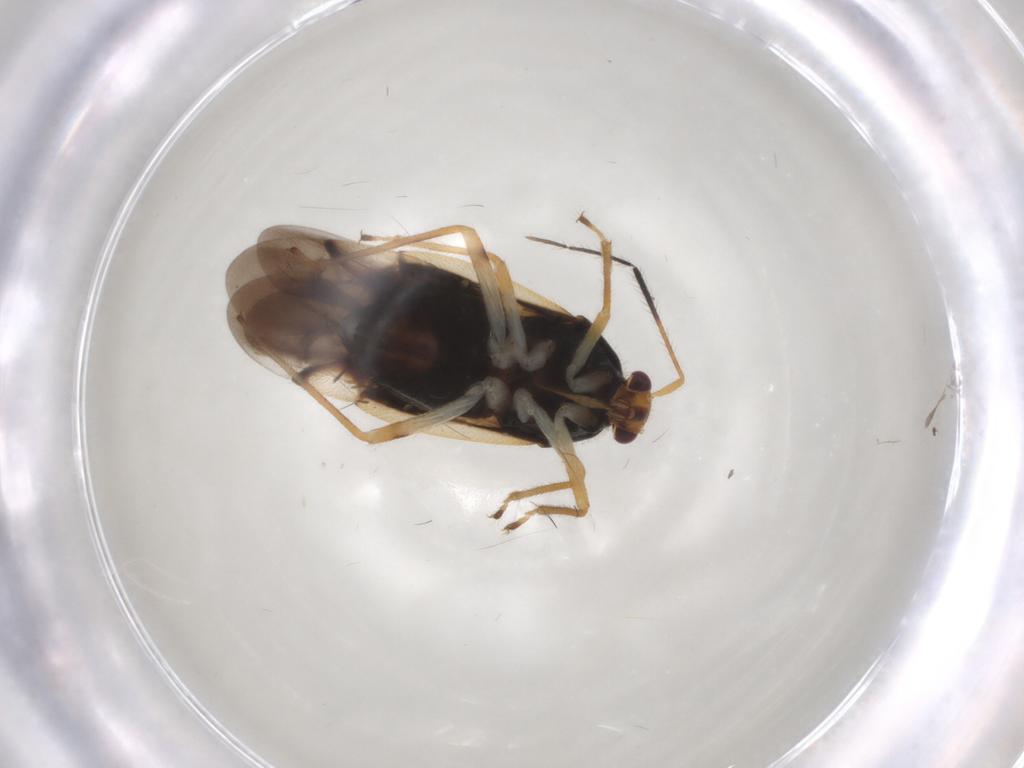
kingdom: Animalia
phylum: Arthropoda
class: Insecta
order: Hemiptera
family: Miridae
